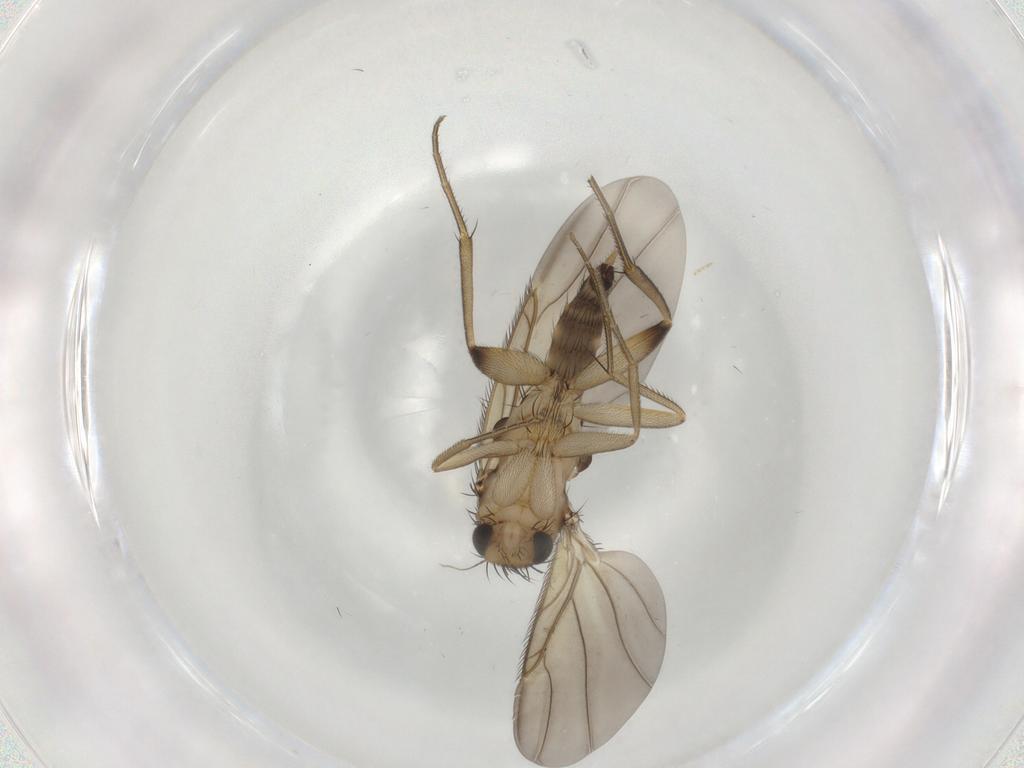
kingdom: Animalia
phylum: Arthropoda
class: Insecta
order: Diptera
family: Phoridae
